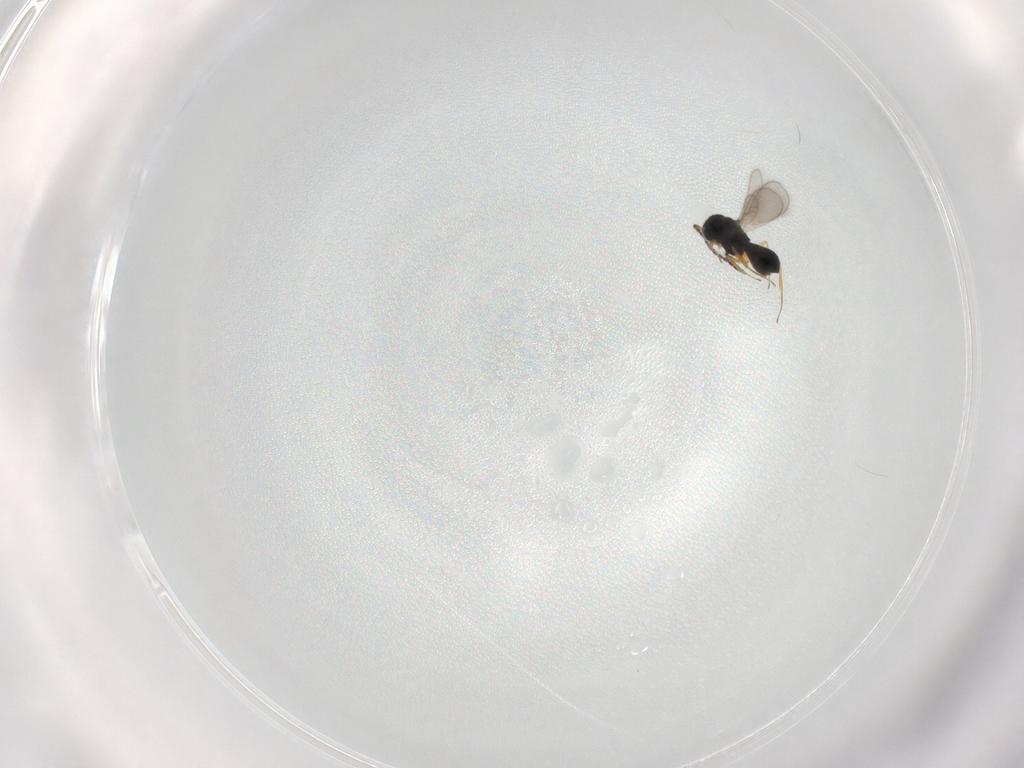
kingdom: Animalia
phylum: Arthropoda
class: Insecta
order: Hymenoptera
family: Scelionidae
